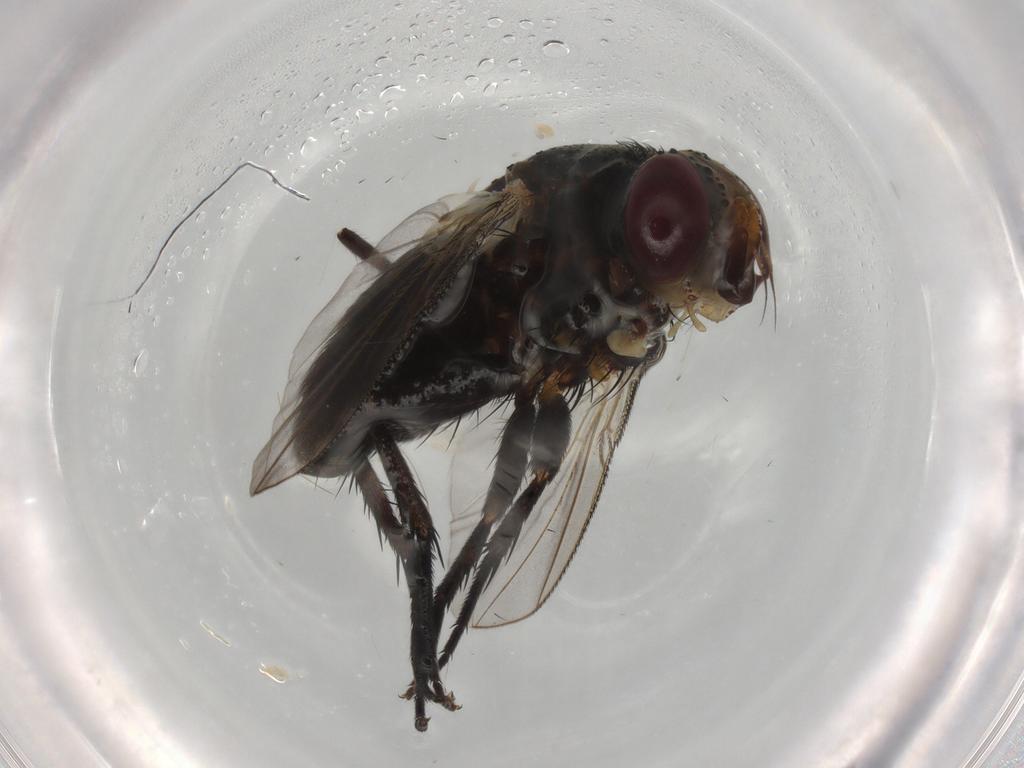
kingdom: Animalia
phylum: Arthropoda
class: Insecta
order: Diptera
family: Tachinidae
